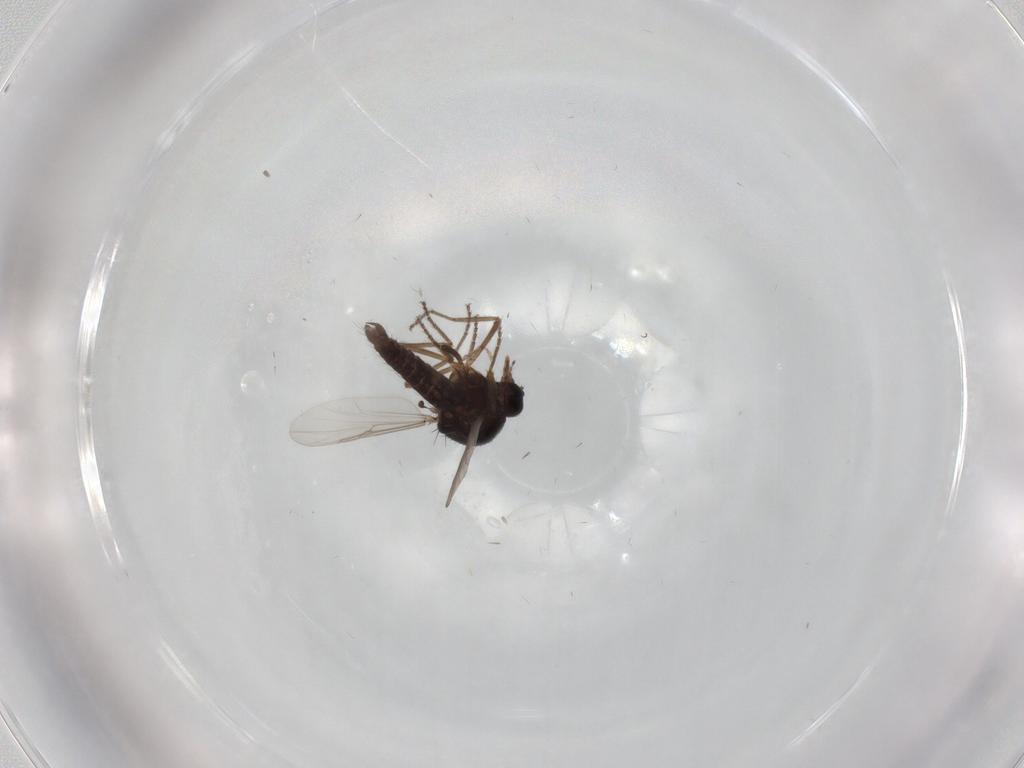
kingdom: Animalia
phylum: Arthropoda
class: Insecta
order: Diptera
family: Ceratopogonidae
